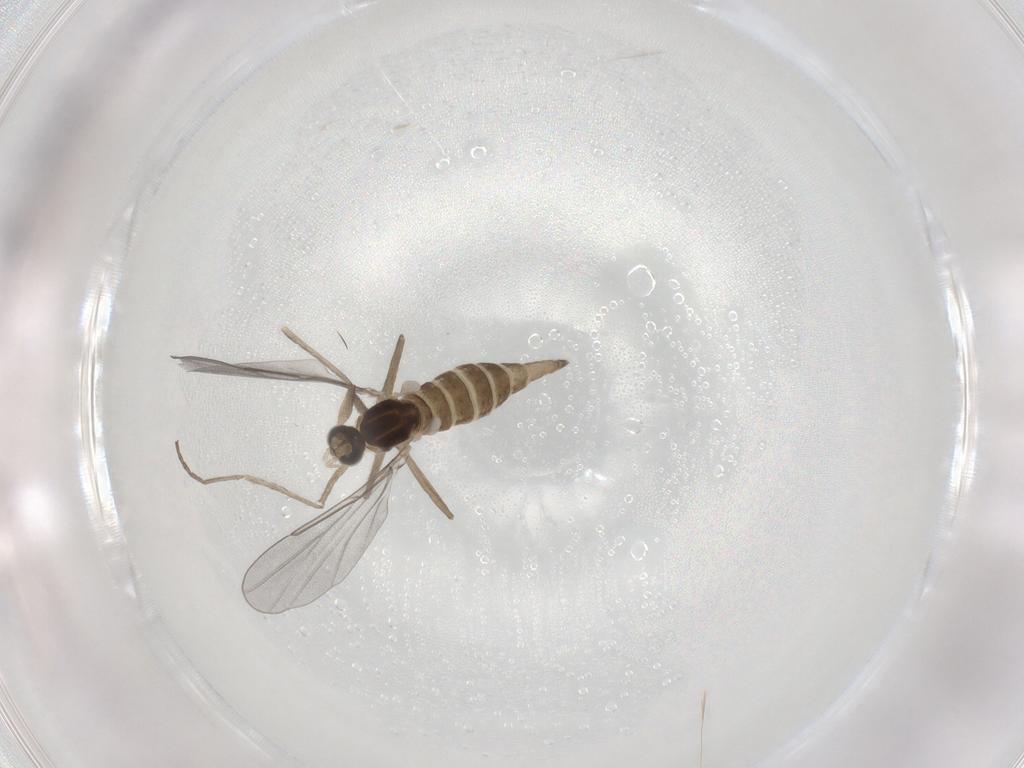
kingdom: Animalia
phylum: Arthropoda
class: Insecta
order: Diptera
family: Cecidomyiidae
